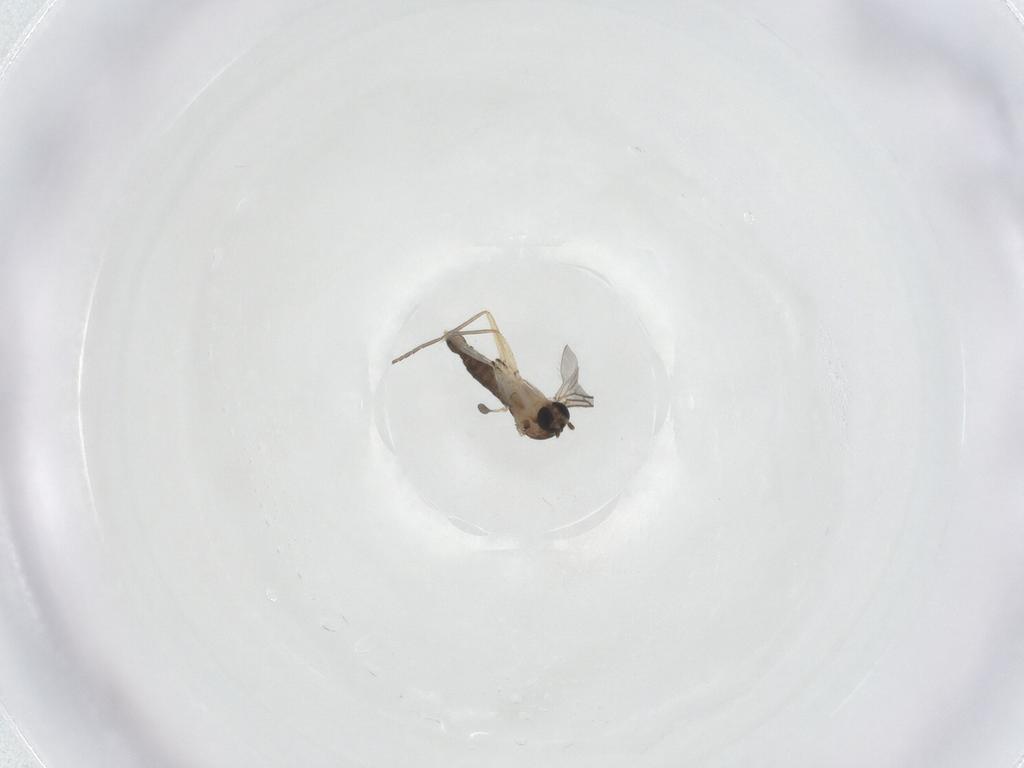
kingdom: Animalia
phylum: Arthropoda
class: Insecta
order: Diptera
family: Sciaridae
